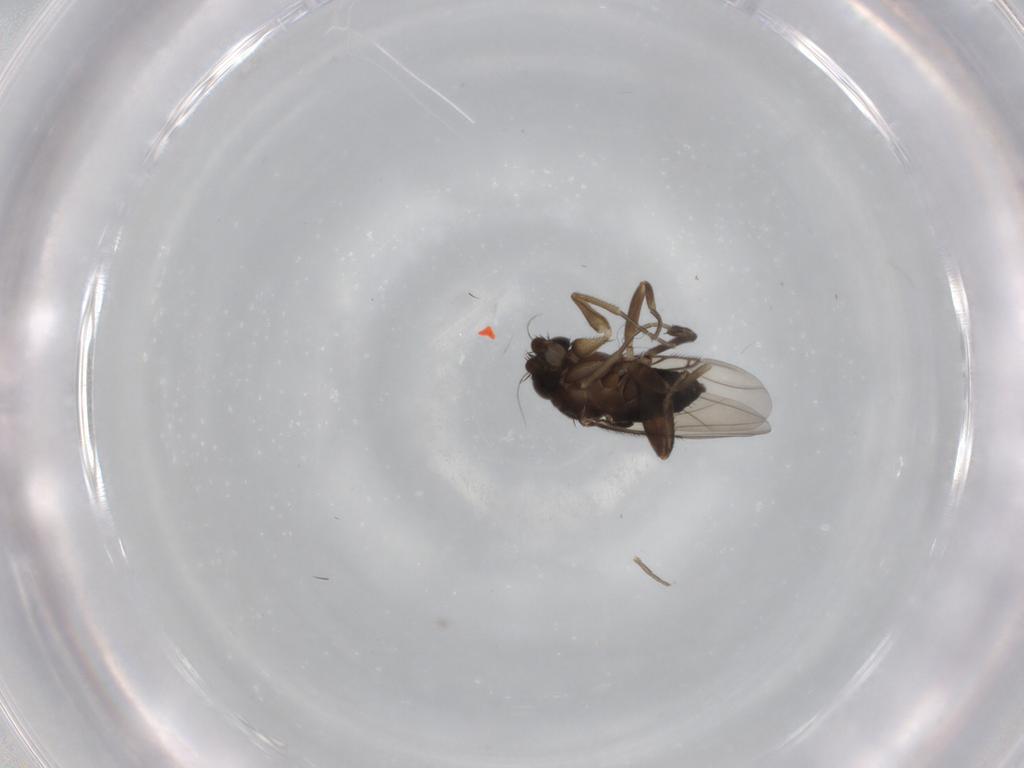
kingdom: Animalia
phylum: Arthropoda
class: Insecta
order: Diptera
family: Phoridae
